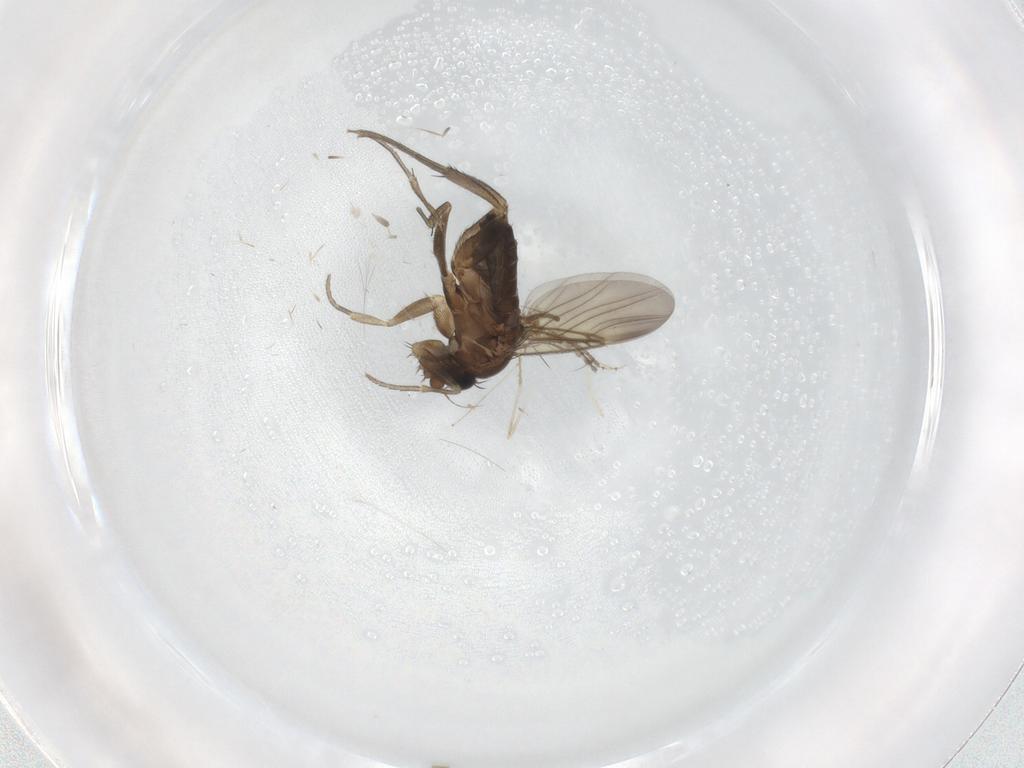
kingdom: Animalia
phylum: Arthropoda
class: Insecta
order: Diptera
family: Phoridae
